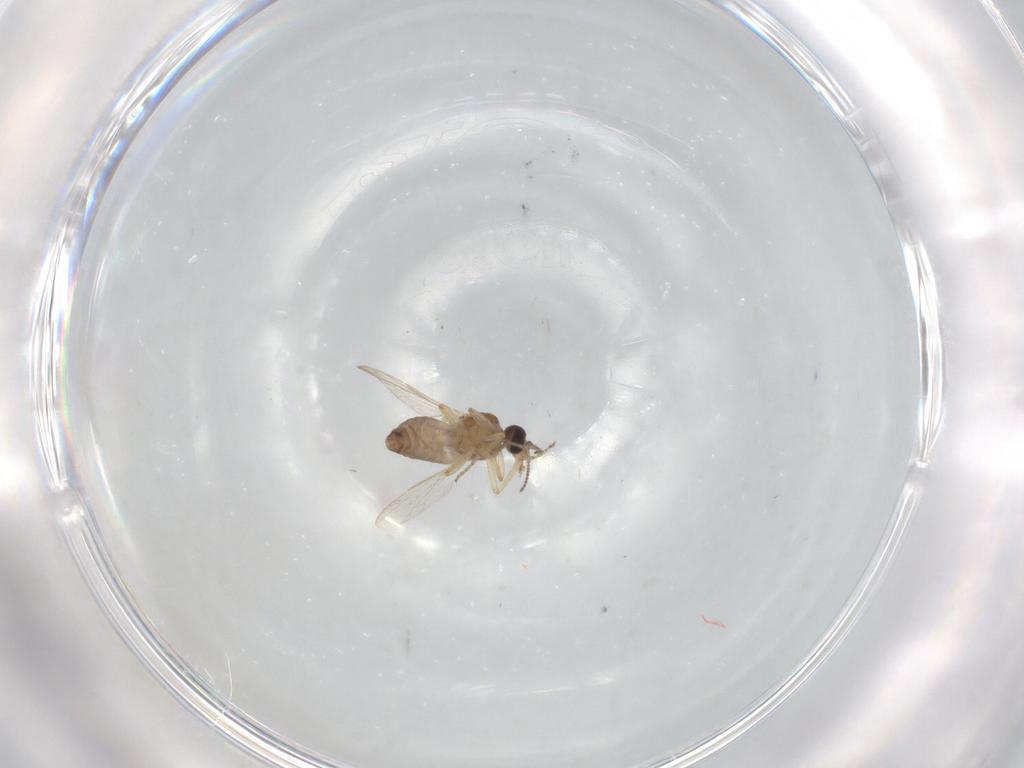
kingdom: Animalia
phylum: Arthropoda
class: Insecta
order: Diptera
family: Ceratopogonidae
